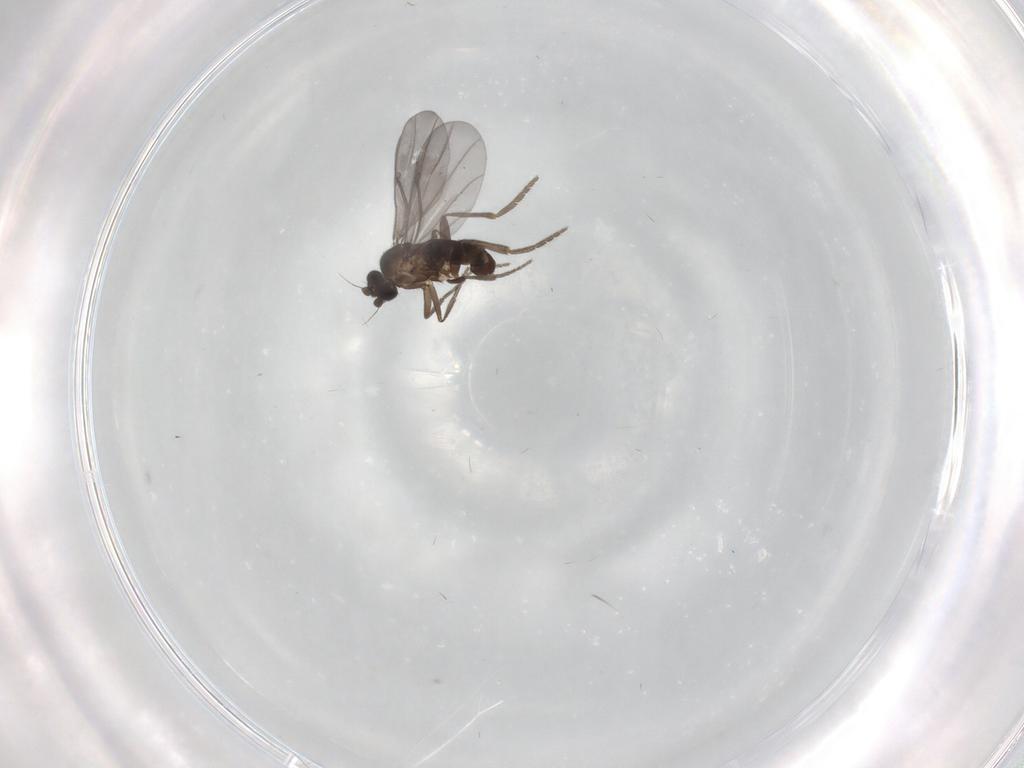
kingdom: Animalia
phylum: Arthropoda
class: Insecta
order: Diptera
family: Phoridae
